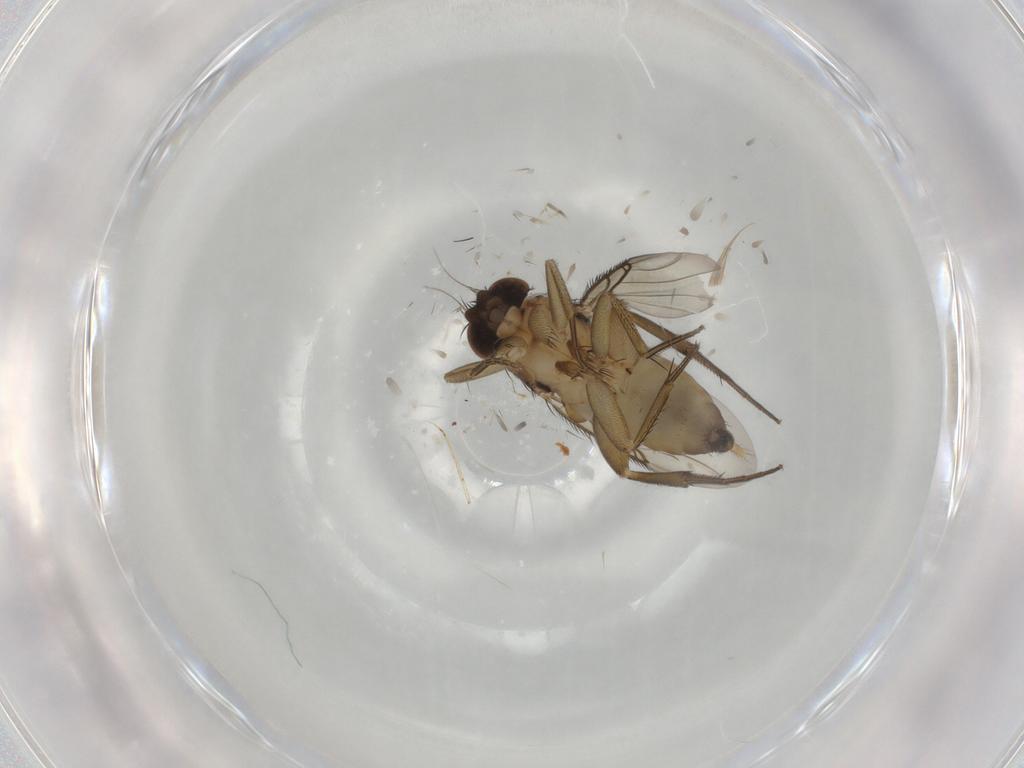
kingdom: Animalia
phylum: Arthropoda
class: Insecta
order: Diptera
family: Phoridae
